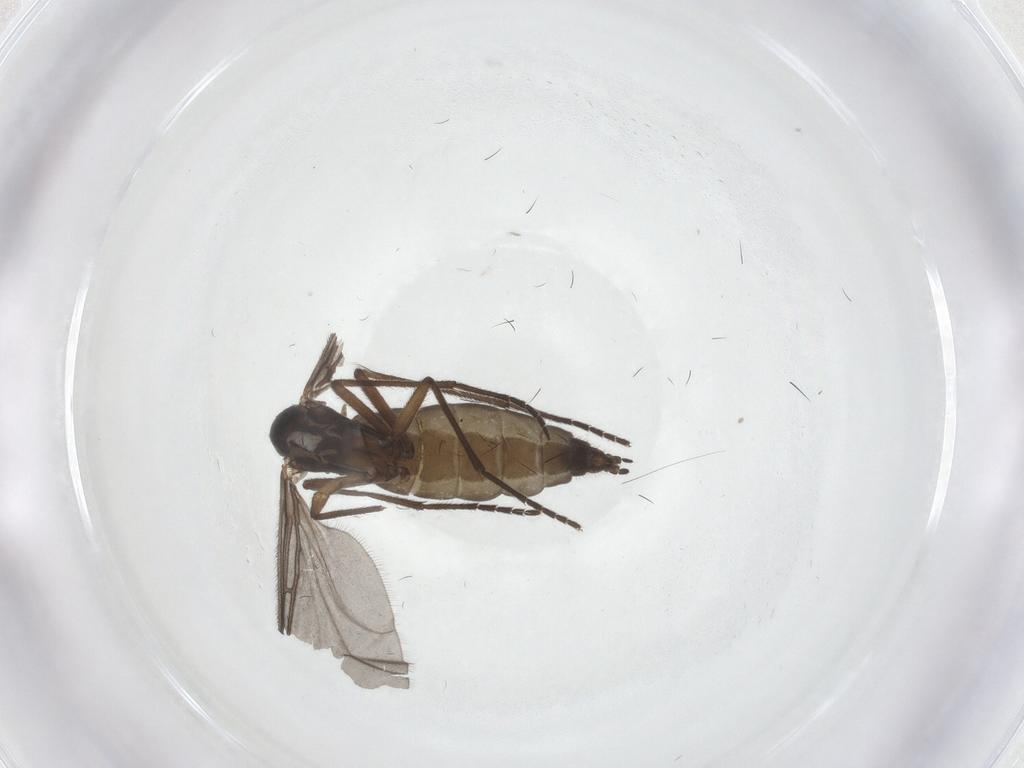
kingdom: Animalia
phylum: Arthropoda
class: Insecta
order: Diptera
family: Sciaridae
